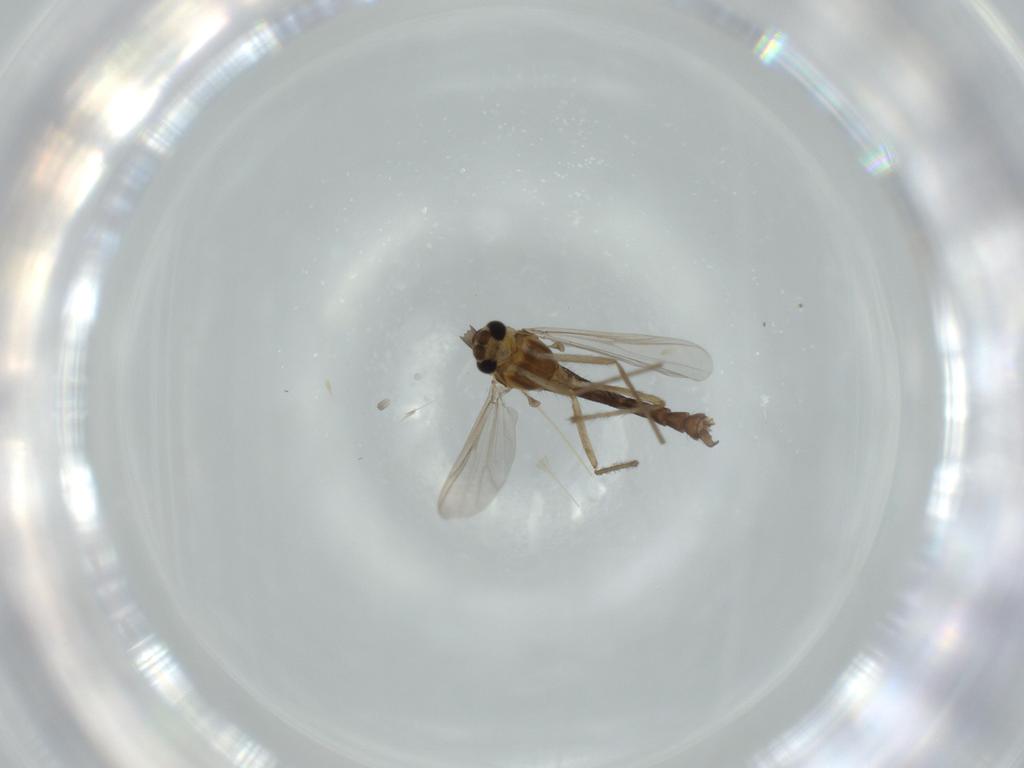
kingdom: Animalia
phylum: Arthropoda
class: Insecta
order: Diptera
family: Chironomidae
